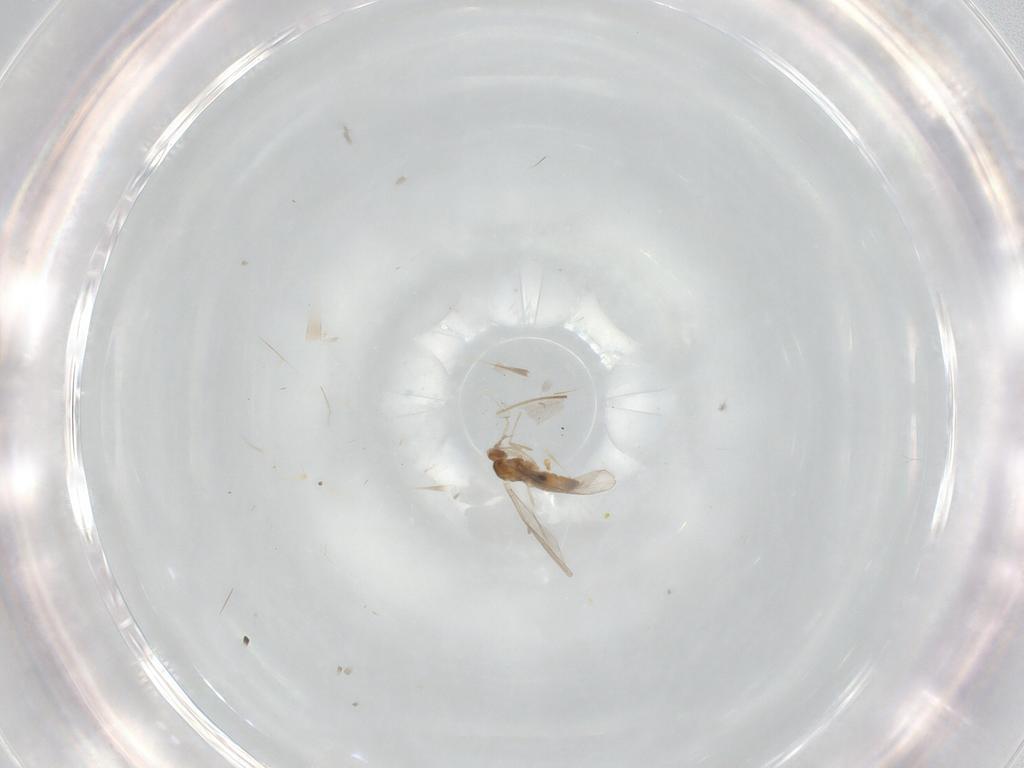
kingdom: Animalia
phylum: Arthropoda
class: Insecta
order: Diptera
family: Cecidomyiidae
